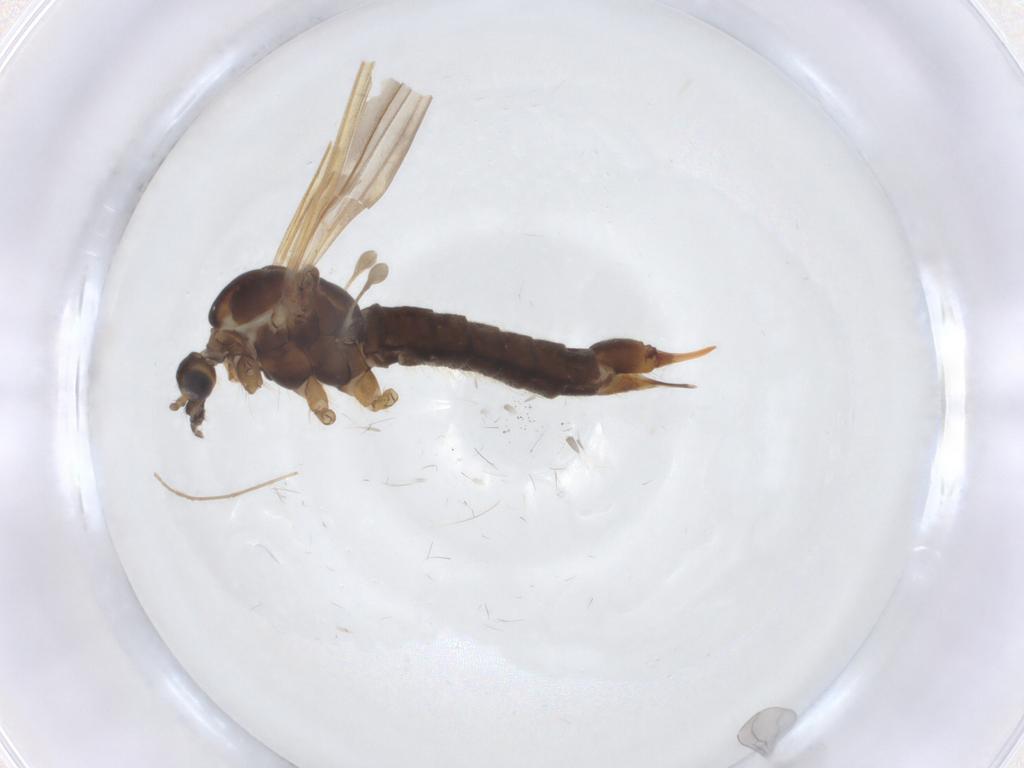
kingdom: Animalia
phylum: Arthropoda
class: Insecta
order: Diptera
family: Limoniidae
